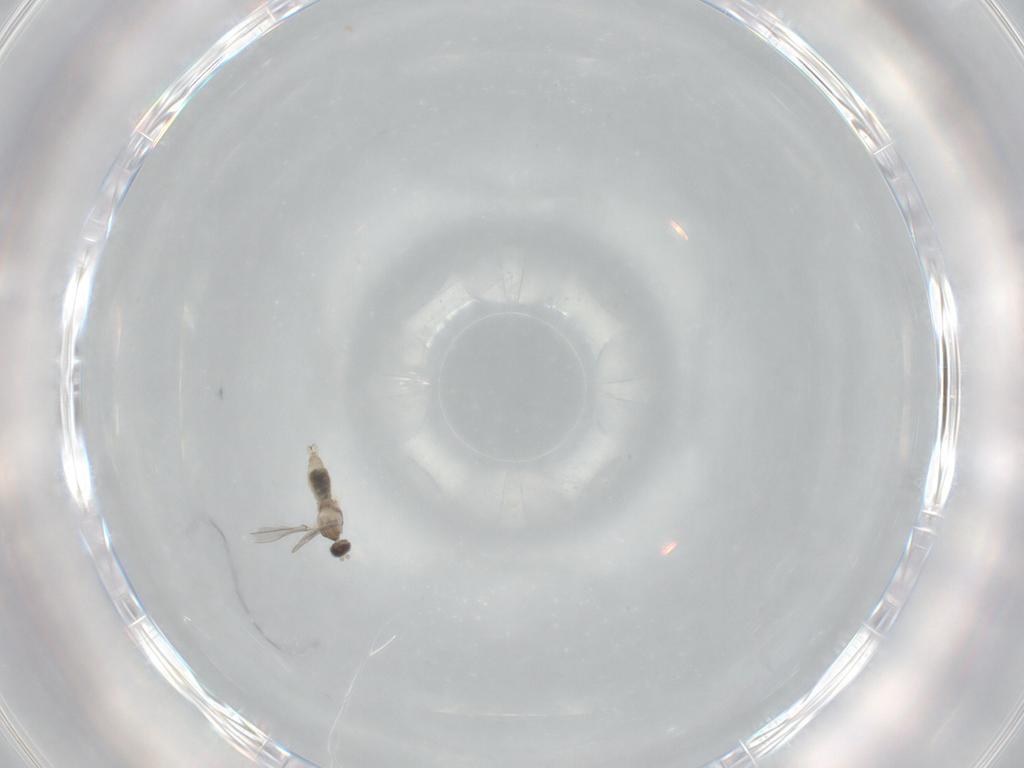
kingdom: Animalia
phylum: Arthropoda
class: Insecta
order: Diptera
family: Cecidomyiidae
